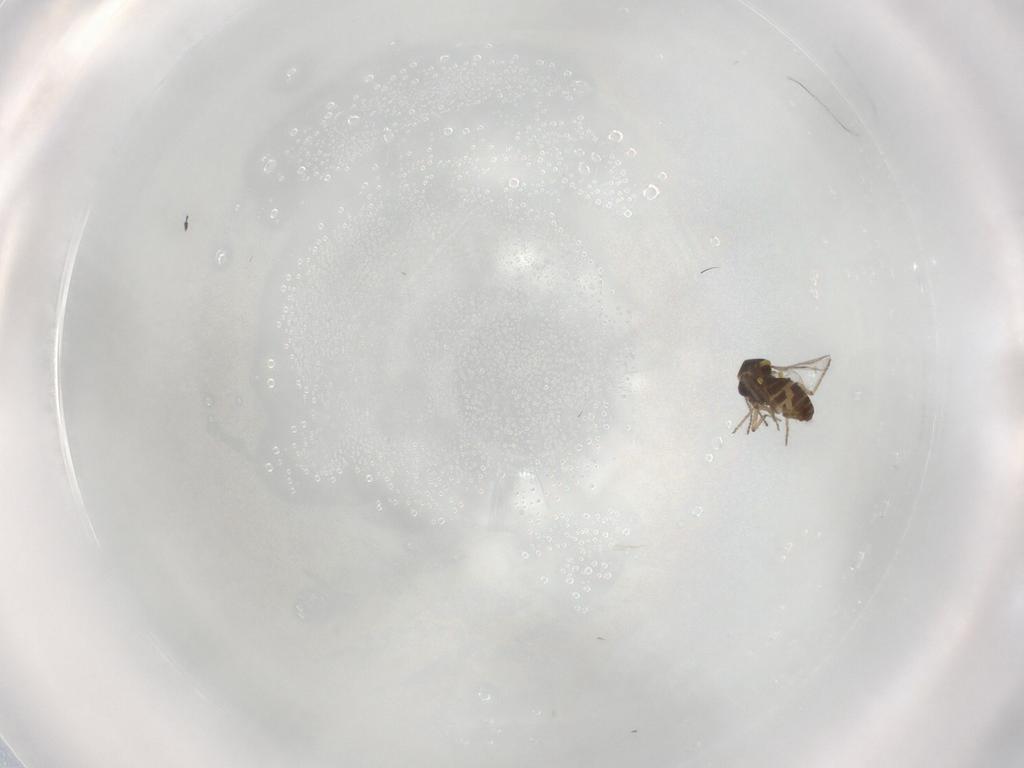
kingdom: Animalia
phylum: Arthropoda
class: Insecta
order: Diptera
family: Ceratopogonidae
